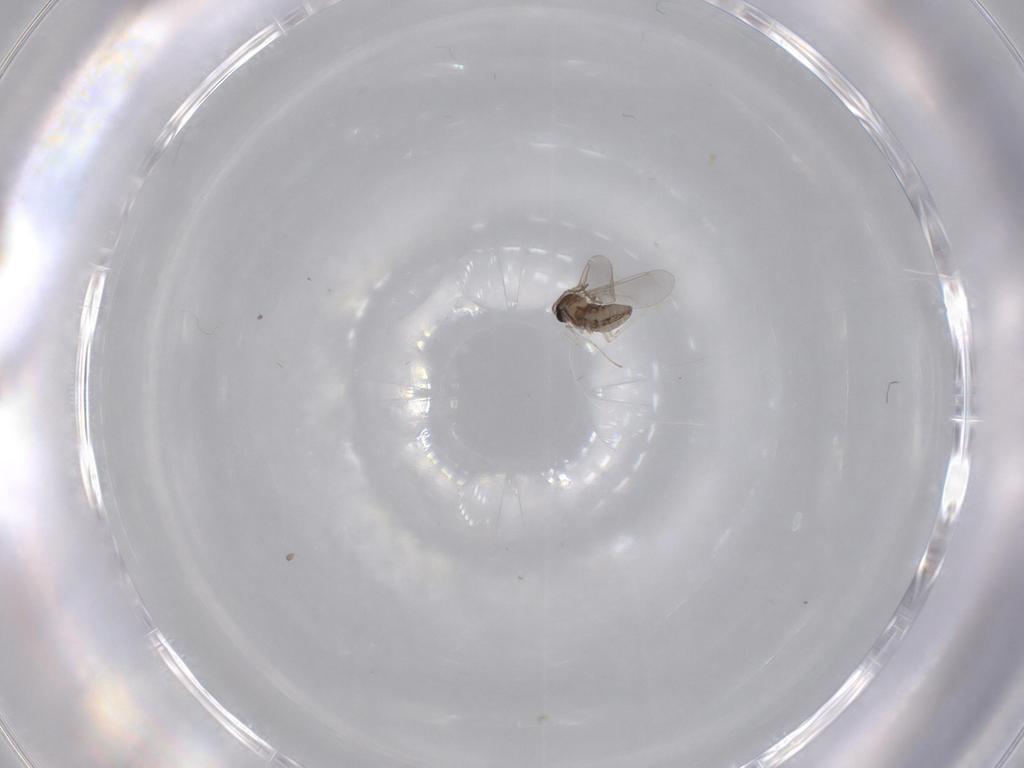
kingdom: Animalia
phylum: Arthropoda
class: Insecta
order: Diptera
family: Cecidomyiidae
